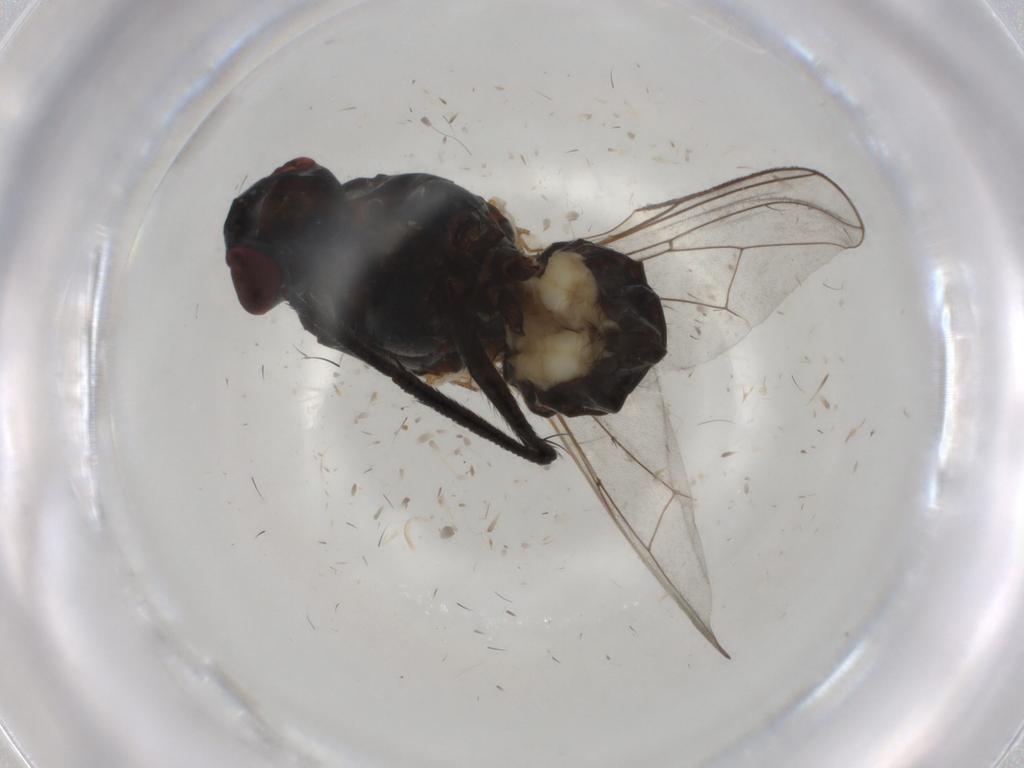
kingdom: Animalia
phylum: Arthropoda
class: Insecta
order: Diptera
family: Anthomyiidae
